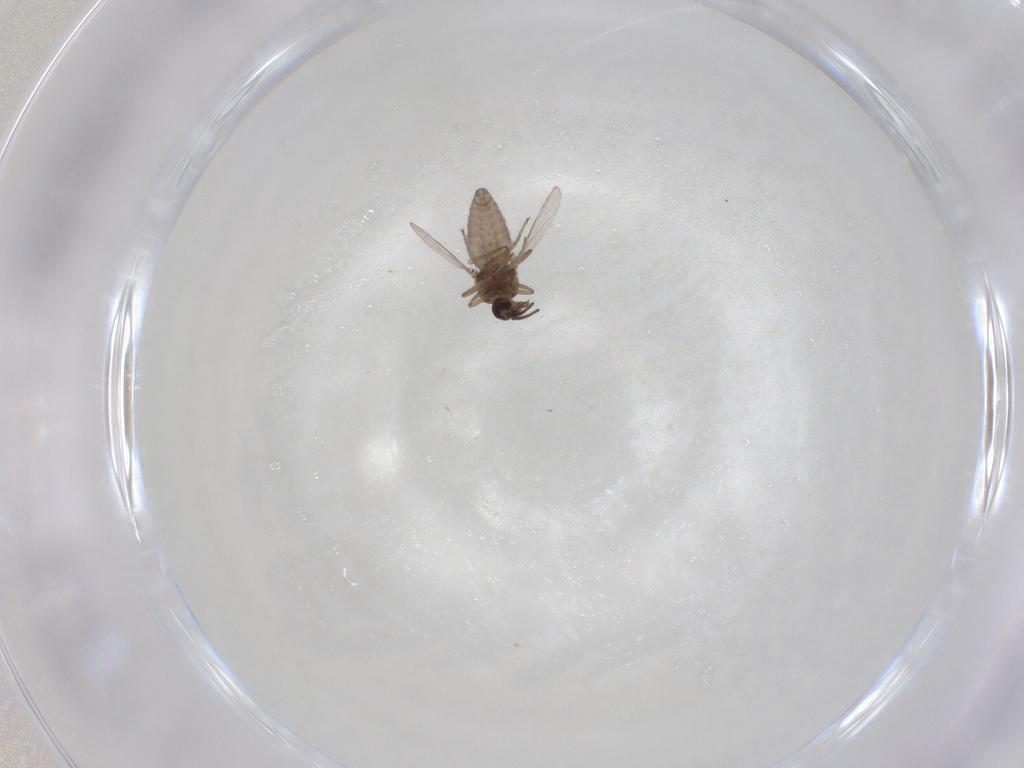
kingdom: Animalia
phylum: Arthropoda
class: Insecta
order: Diptera
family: Ceratopogonidae
